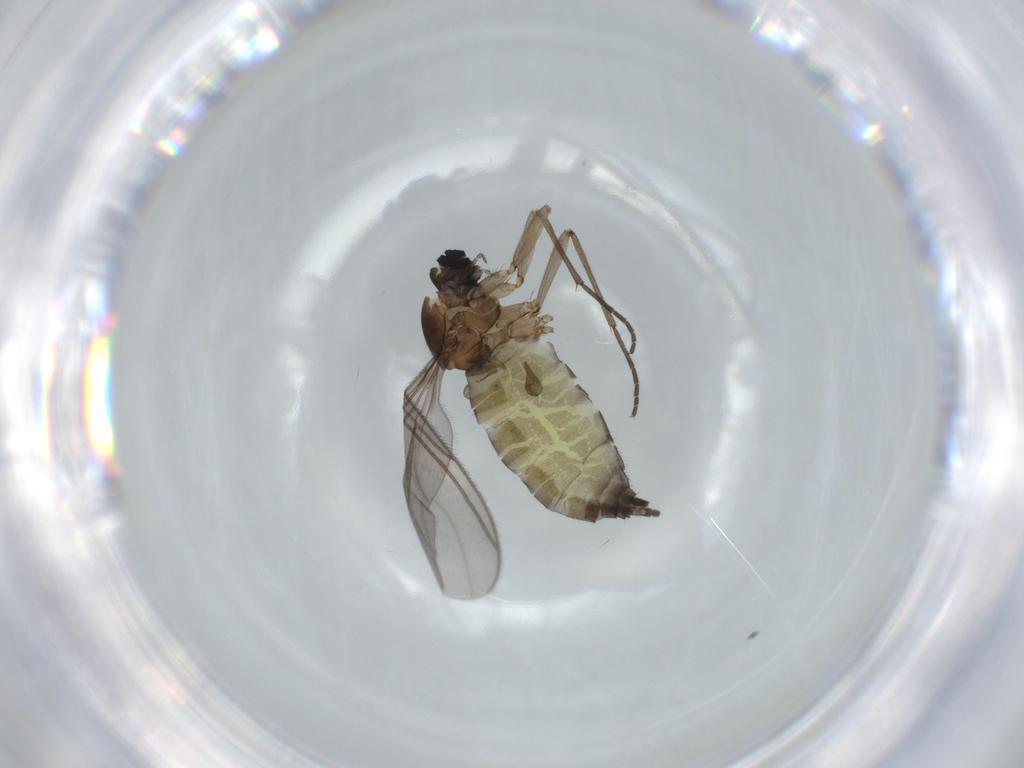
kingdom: Animalia
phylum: Arthropoda
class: Insecta
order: Diptera
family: Sciaridae
